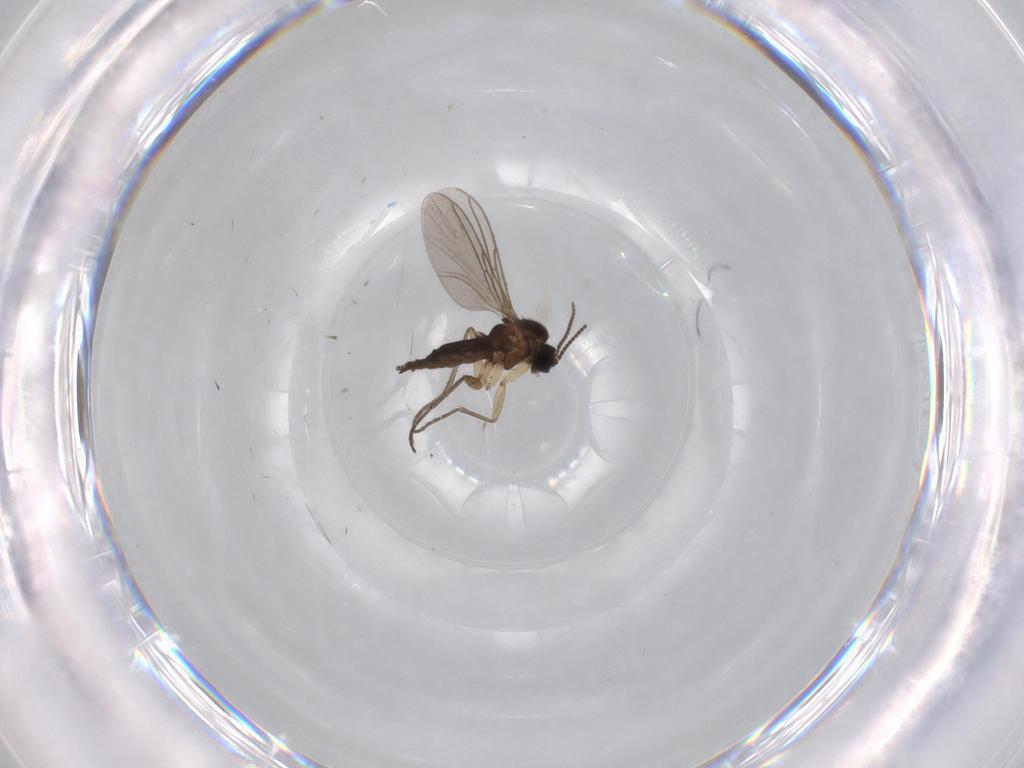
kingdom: Animalia
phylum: Arthropoda
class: Insecta
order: Diptera
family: Sciaridae
